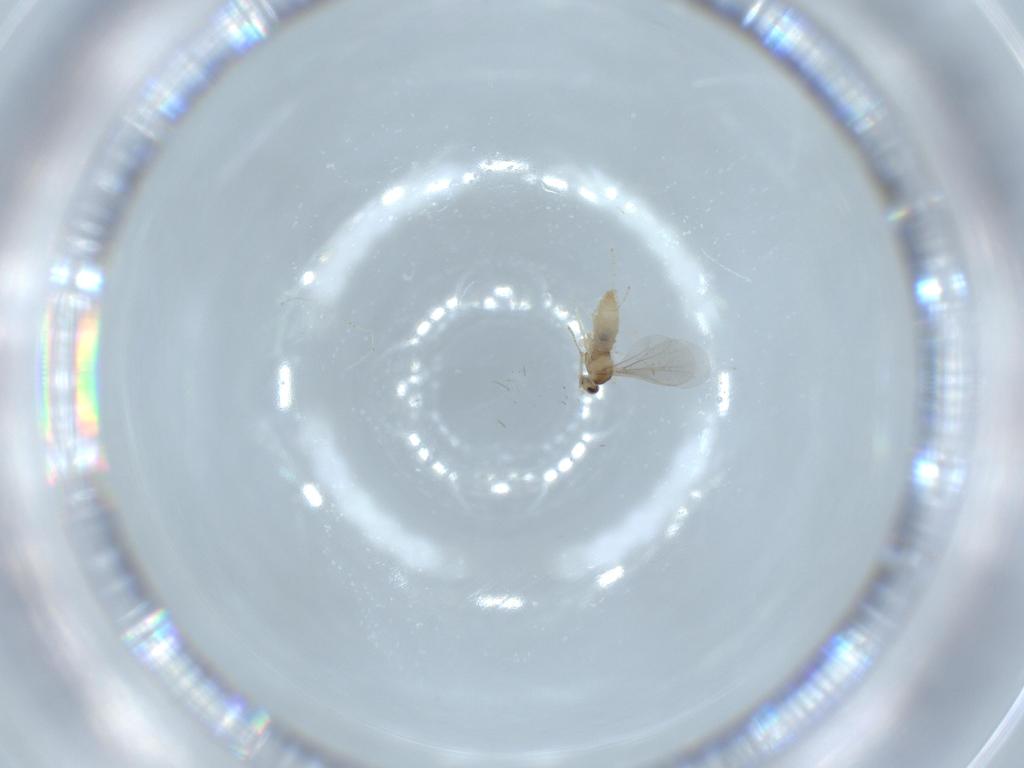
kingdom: Animalia
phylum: Arthropoda
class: Insecta
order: Diptera
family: Cecidomyiidae
